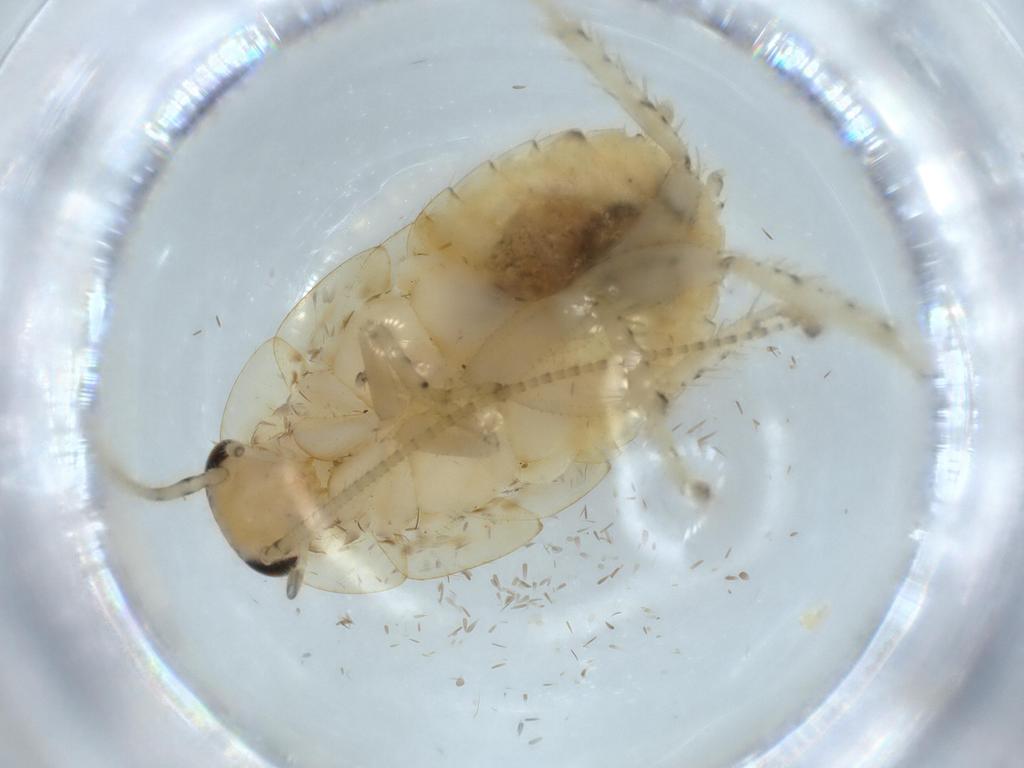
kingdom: Animalia
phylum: Arthropoda
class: Insecta
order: Blattodea
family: Ectobiidae
